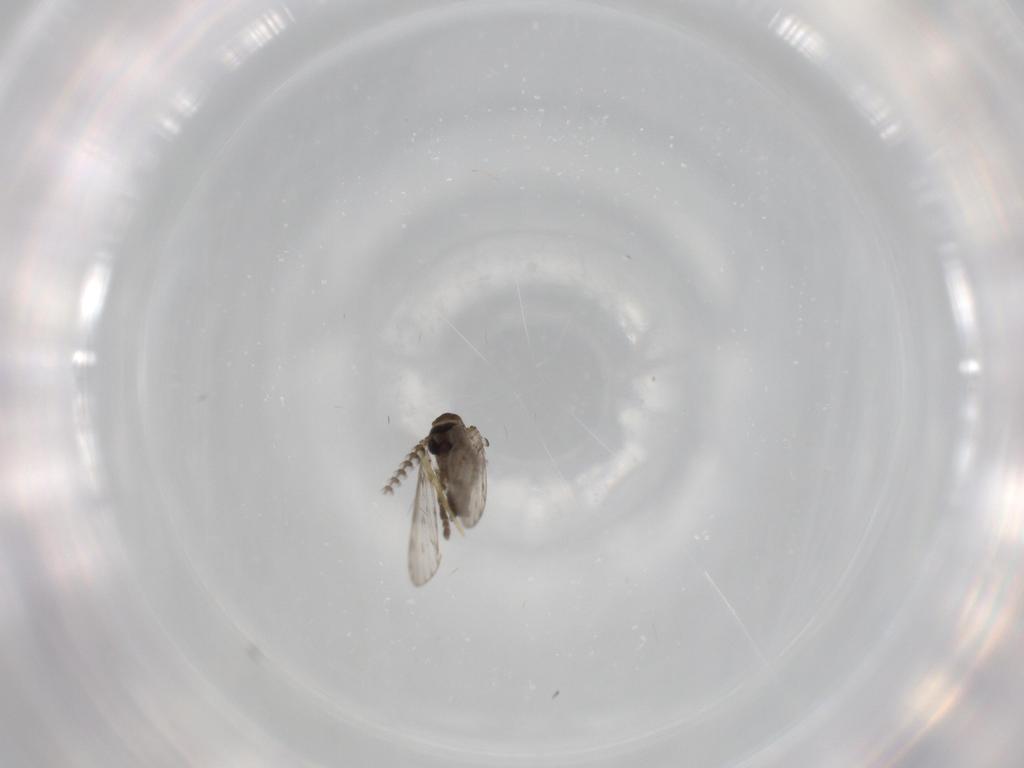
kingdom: Animalia
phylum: Arthropoda
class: Insecta
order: Diptera
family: Psychodidae
